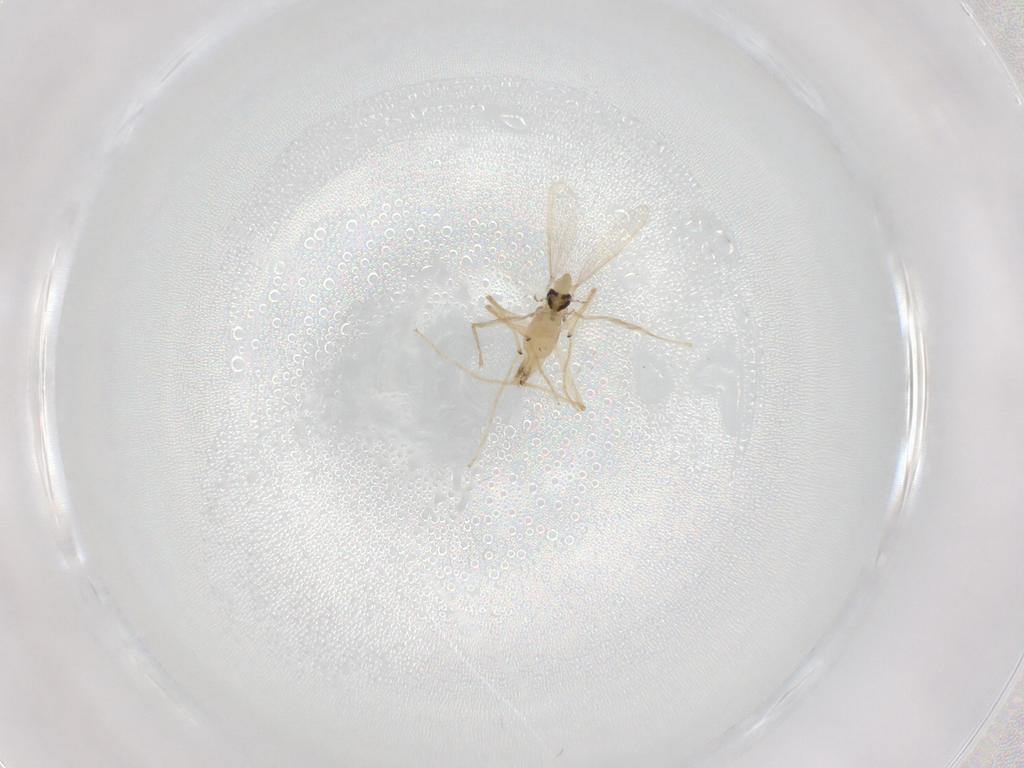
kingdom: Animalia
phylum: Arthropoda
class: Insecta
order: Diptera
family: Chironomidae
